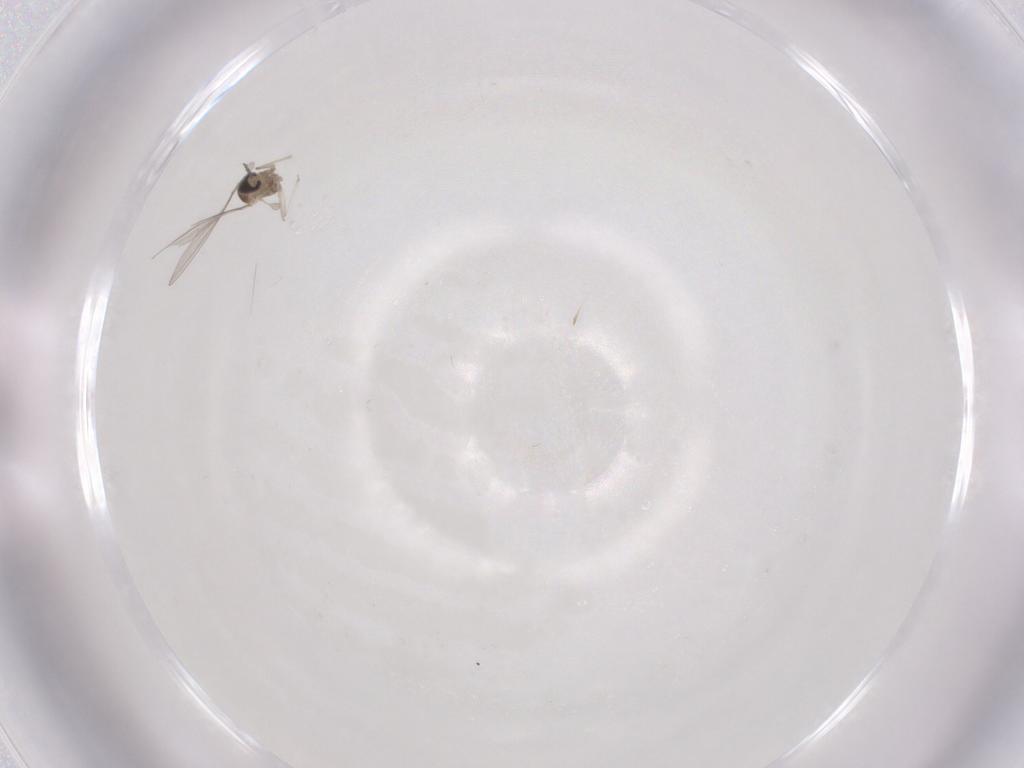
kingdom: Animalia
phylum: Arthropoda
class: Insecta
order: Diptera
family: Cecidomyiidae
